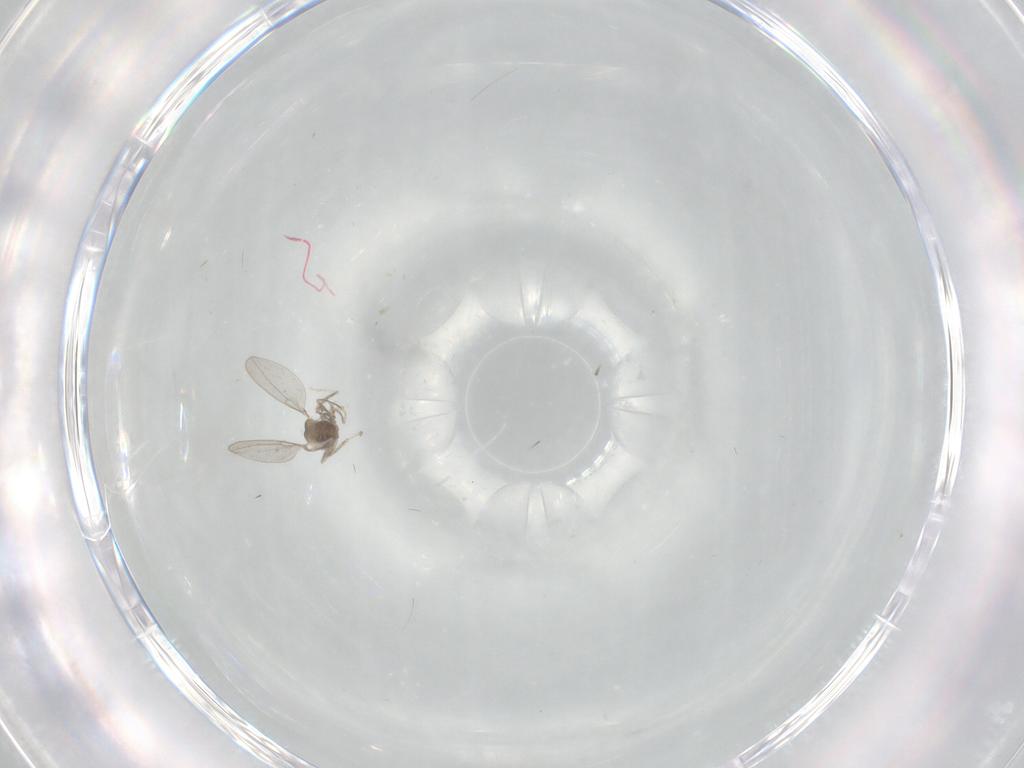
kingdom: Animalia
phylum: Arthropoda
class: Insecta
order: Diptera
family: Cecidomyiidae
